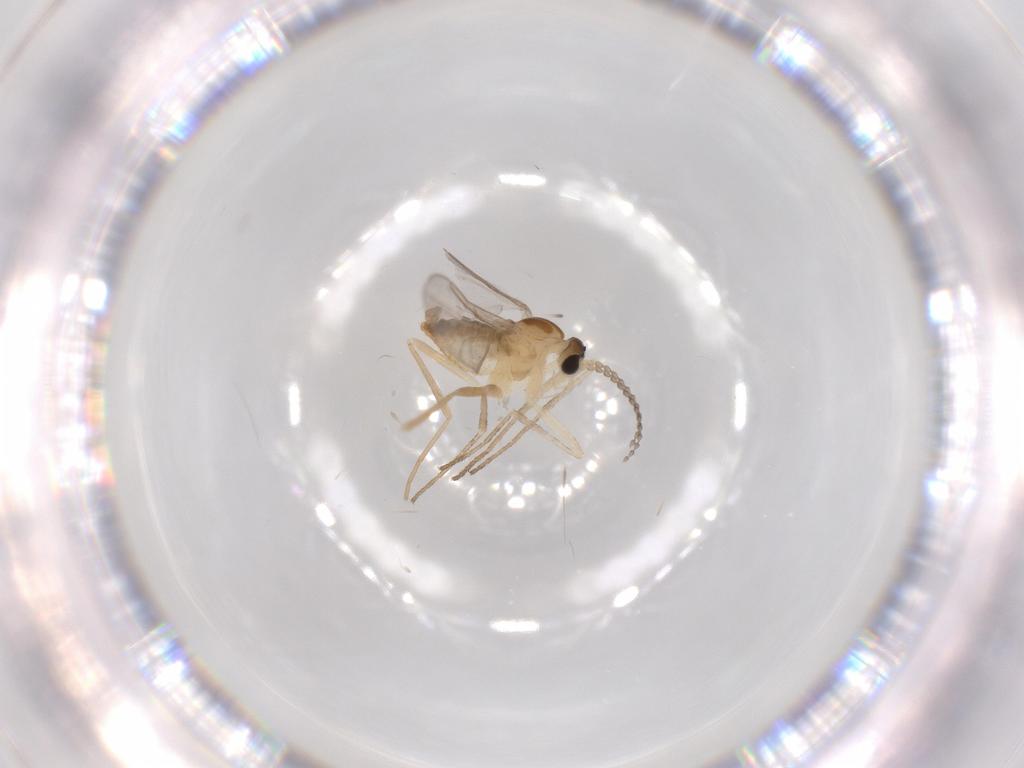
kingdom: Animalia
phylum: Arthropoda
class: Insecta
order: Diptera
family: Cecidomyiidae
